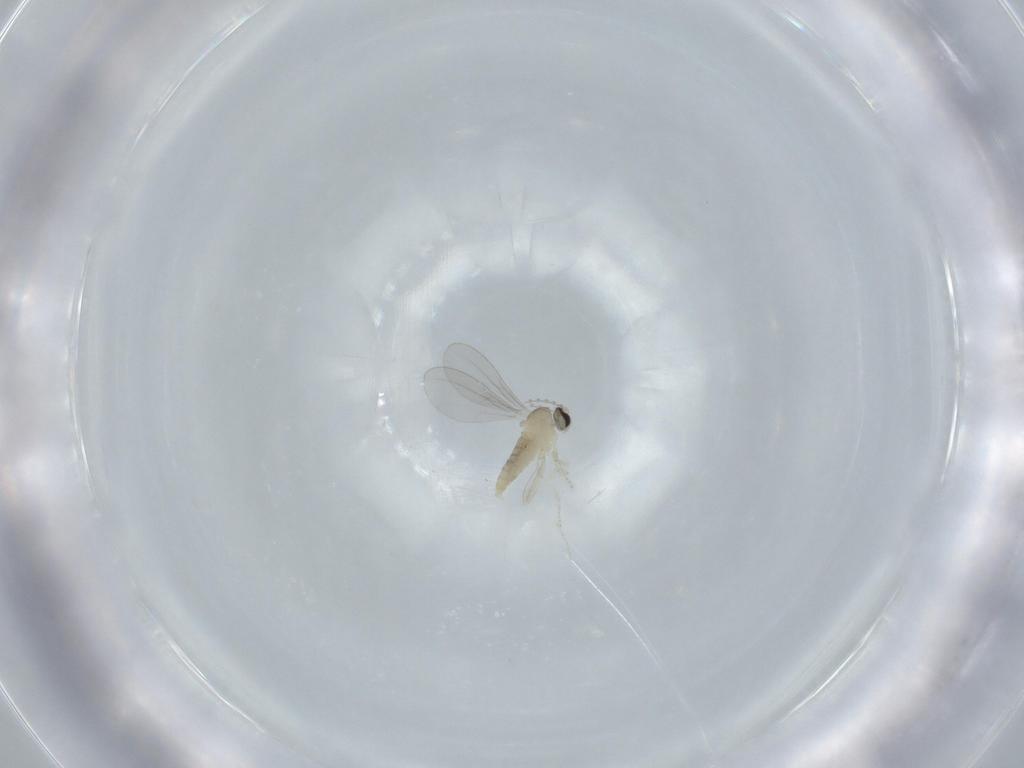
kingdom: Animalia
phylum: Arthropoda
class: Insecta
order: Diptera
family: Cecidomyiidae
